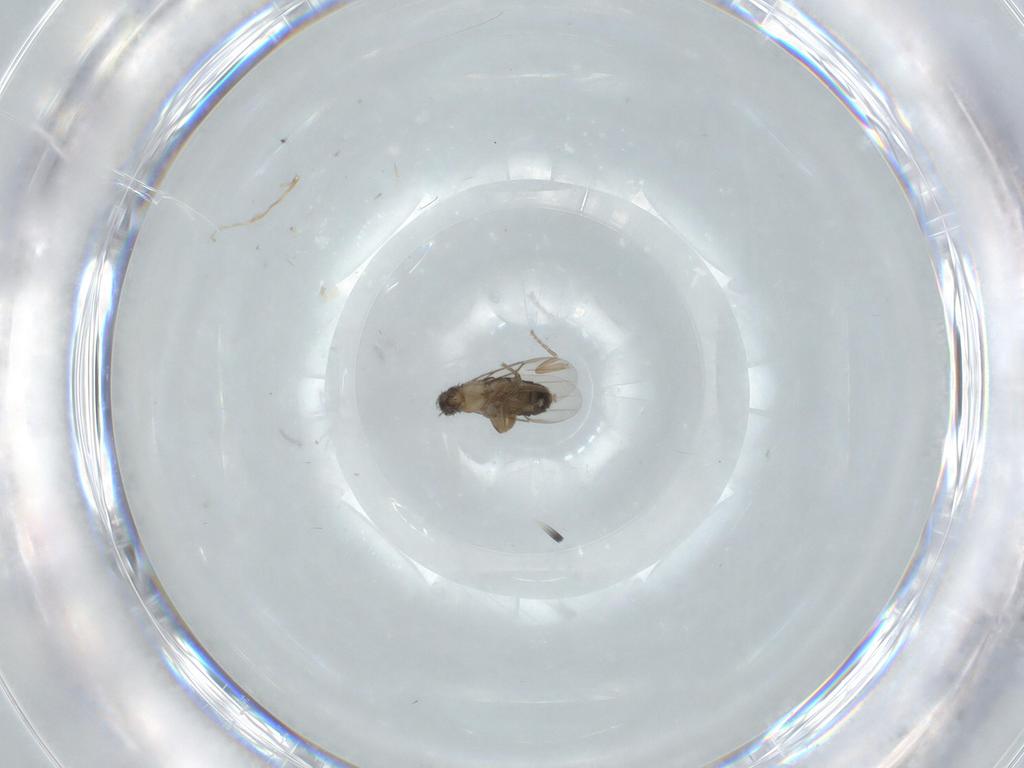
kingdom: Animalia
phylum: Arthropoda
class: Insecta
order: Diptera
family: Phoridae
